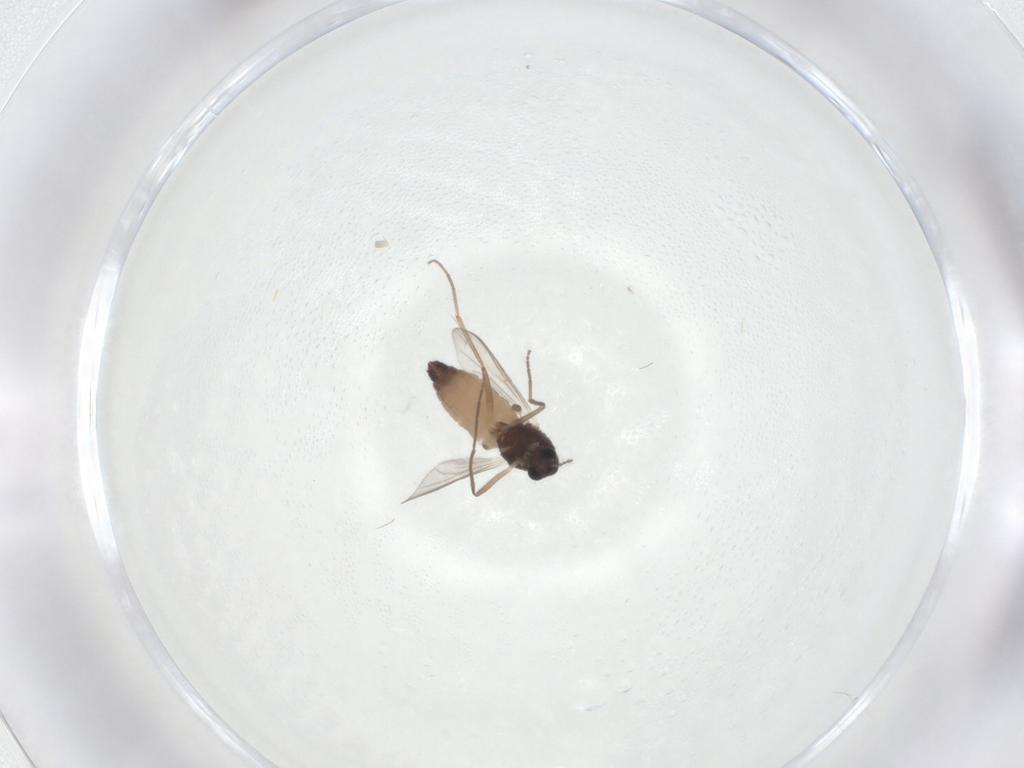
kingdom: Animalia
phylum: Arthropoda
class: Insecta
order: Diptera
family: Chironomidae
